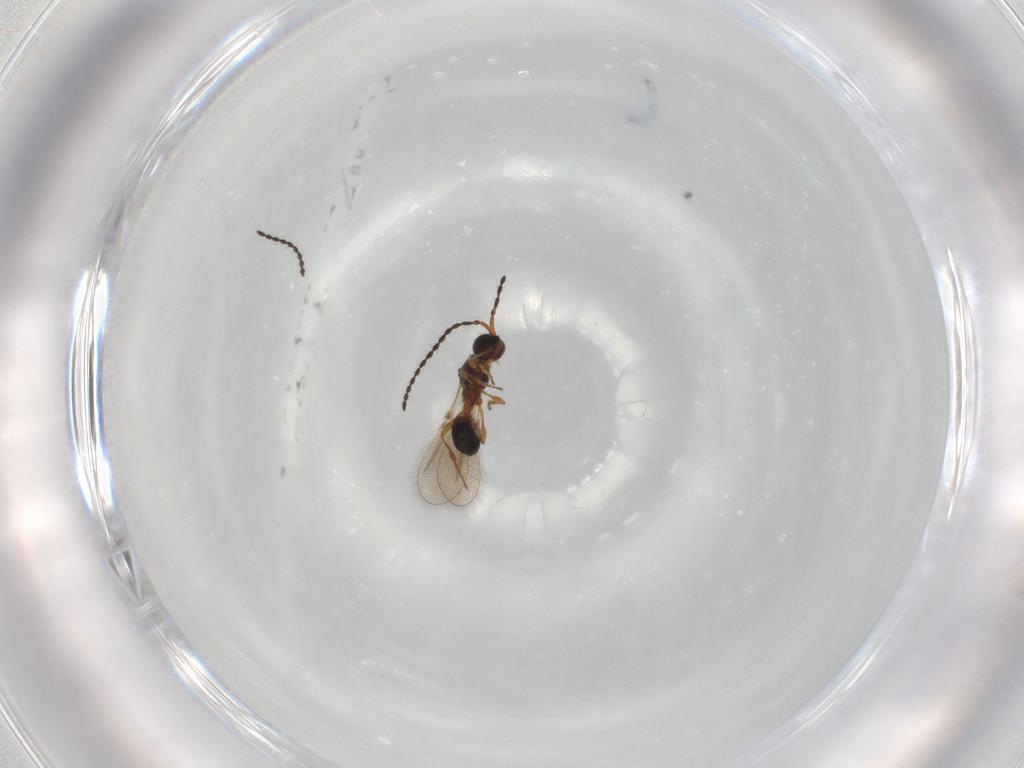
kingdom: Animalia
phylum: Arthropoda
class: Insecta
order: Hymenoptera
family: Diapriidae
